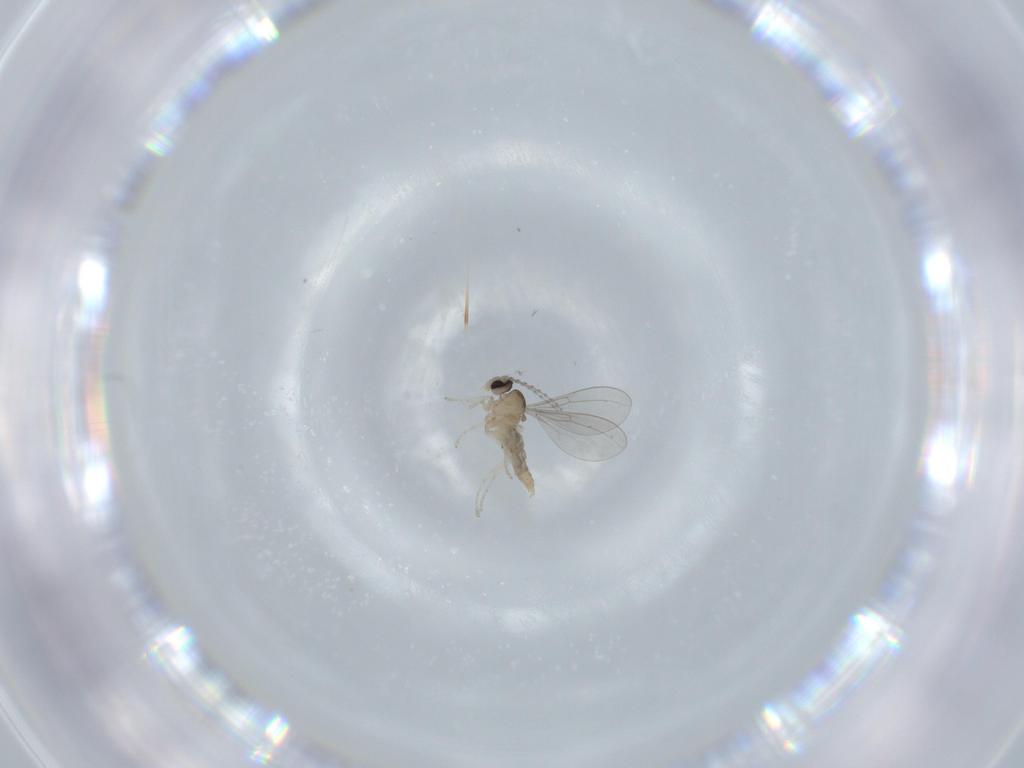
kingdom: Animalia
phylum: Arthropoda
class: Insecta
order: Diptera
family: Cecidomyiidae
